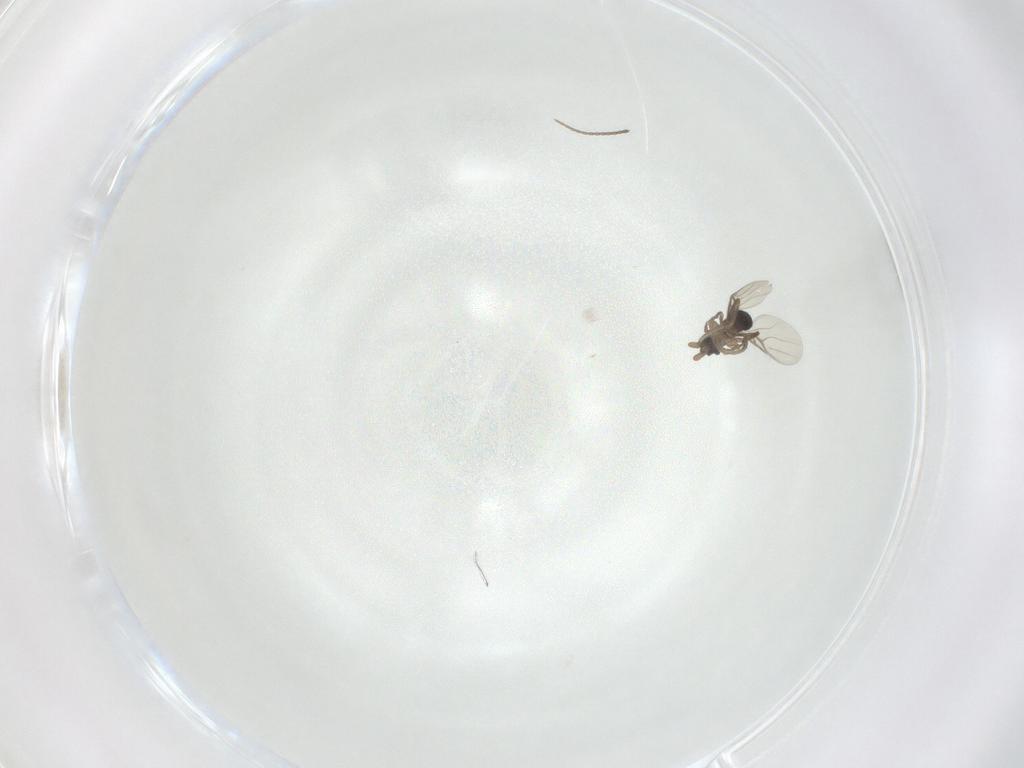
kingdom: Animalia
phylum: Arthropoda
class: Insecta
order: Diptera
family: Phoridae
